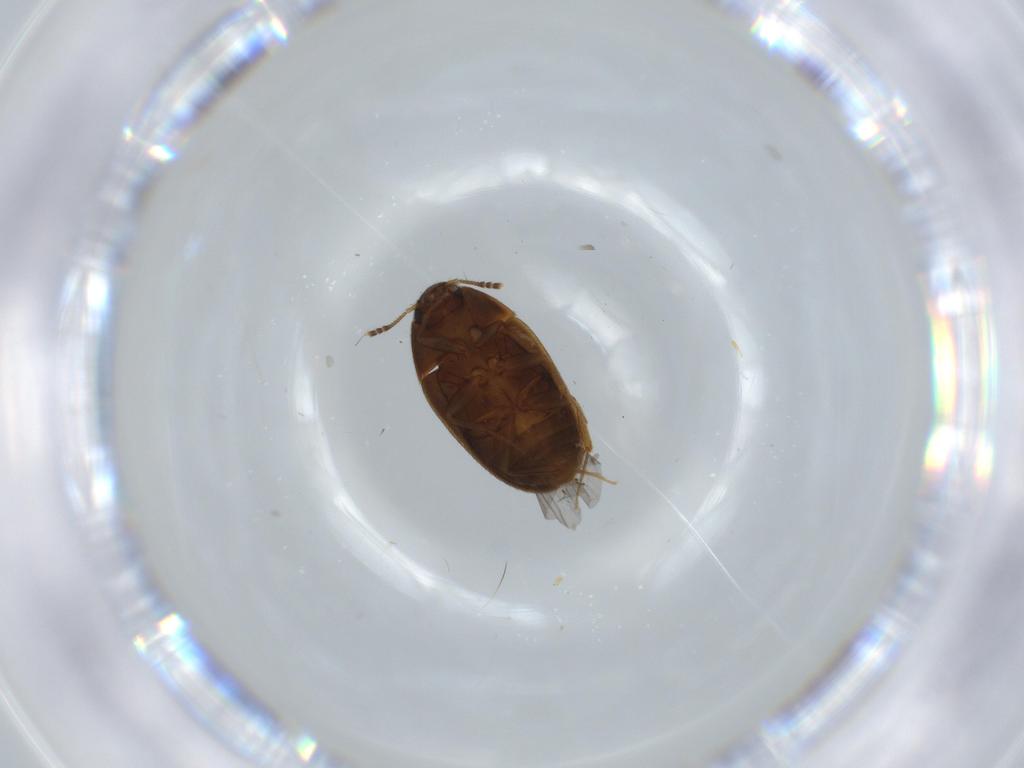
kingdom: Animalia
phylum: Arthropoda
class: Insecta
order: Coleoptera
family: Mycetophagidae
